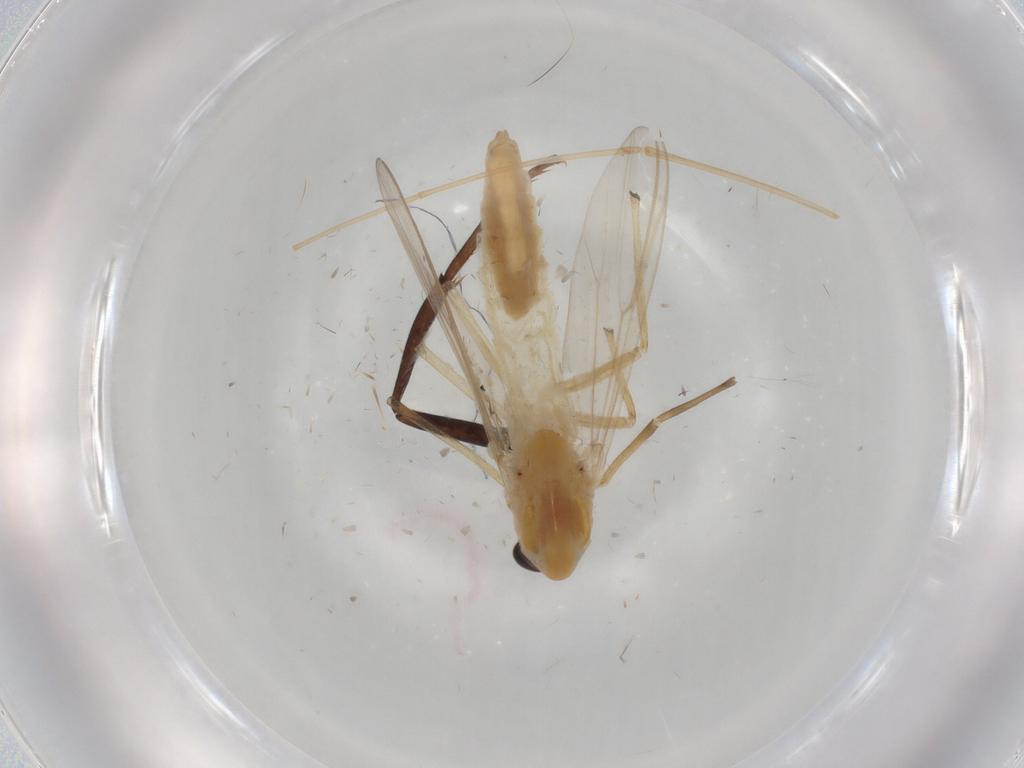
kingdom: Animalia
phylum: Arthropoda
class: Insecta
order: Diptera
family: Chironomidae
